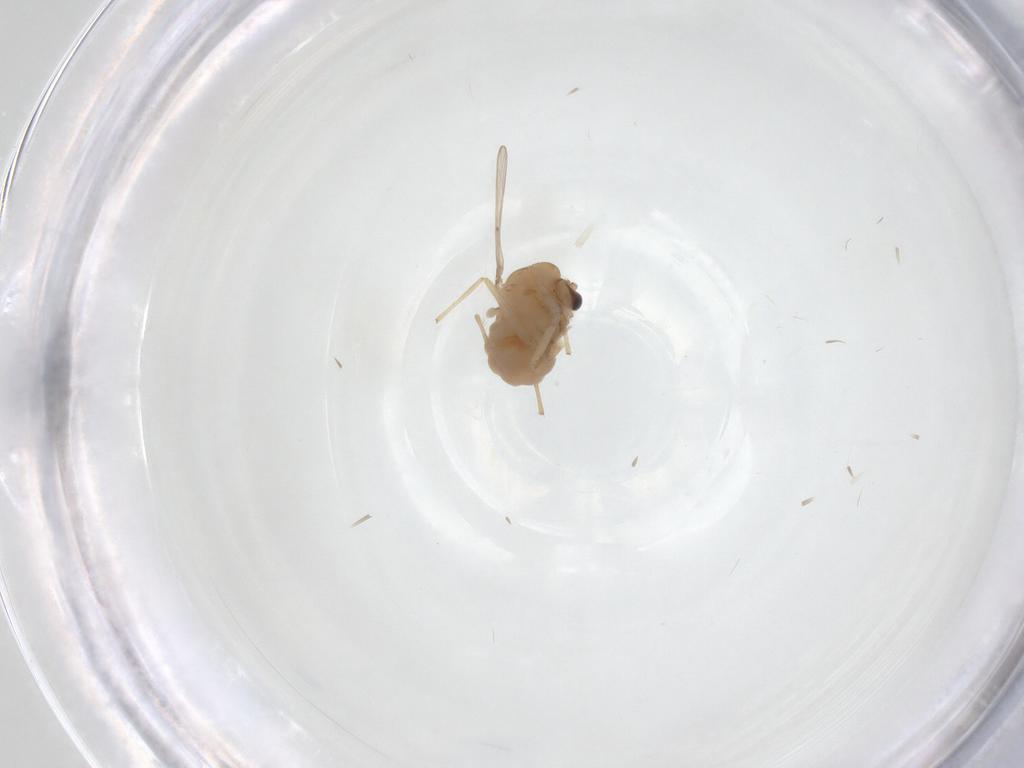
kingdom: Animalia
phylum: Arthropoda
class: Insecta
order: Diptera
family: Chironomidae
